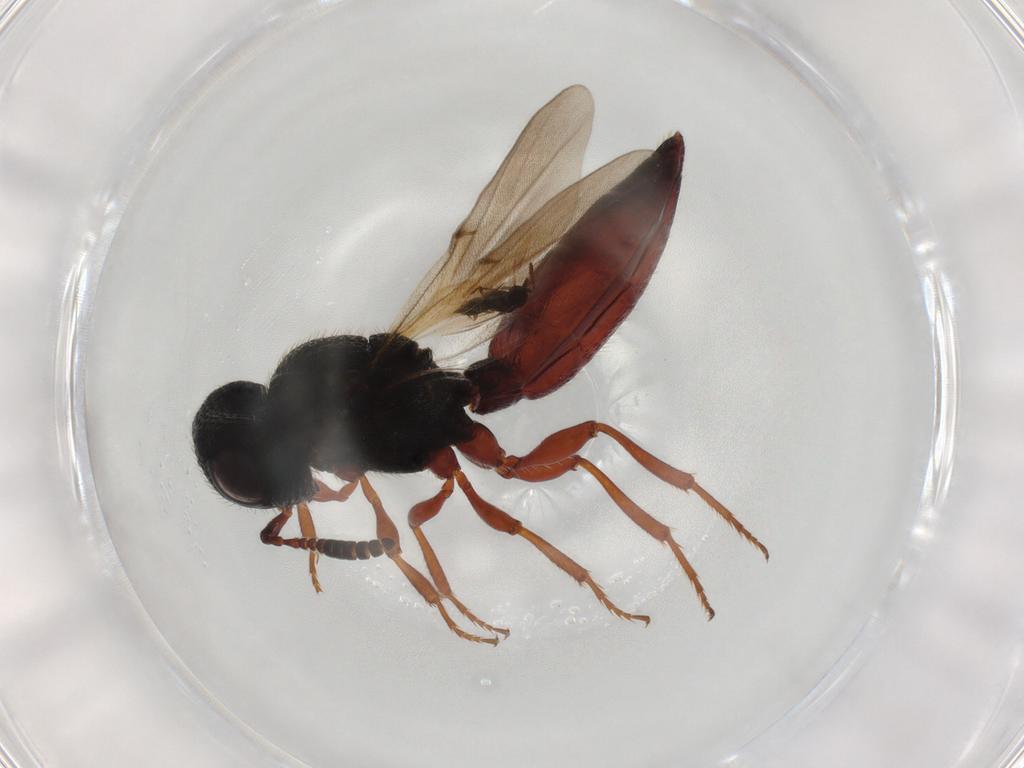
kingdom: Animalia
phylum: Arthropoda
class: Insecta
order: Hymenoptera
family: Scelionidae
